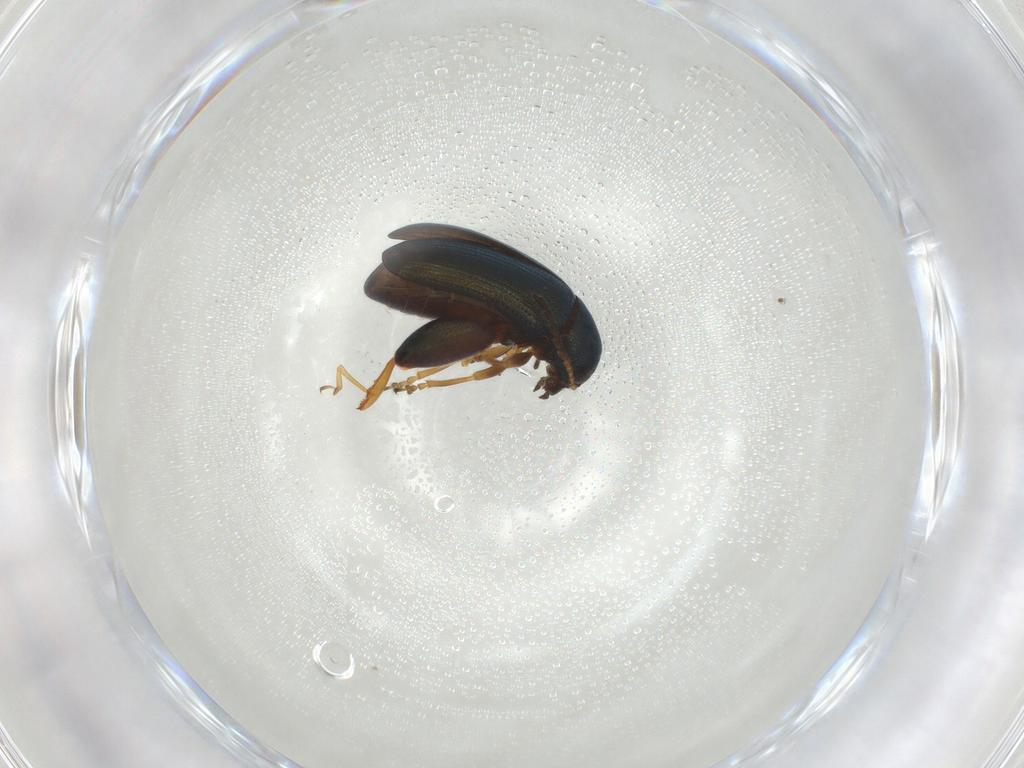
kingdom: Animalia
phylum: Arthropoda
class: Insecta
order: Coleoptera
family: Chrysomelidae
